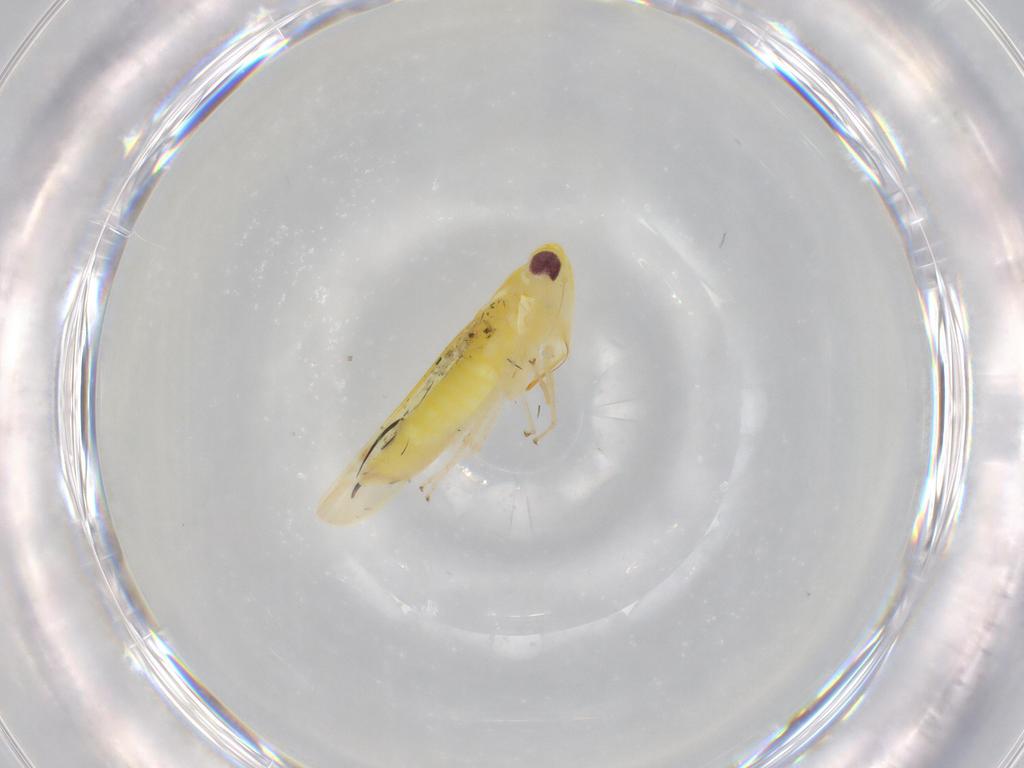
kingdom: Animalia
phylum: Arthropoda
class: Insecta
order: Hemiptera
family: Cicadellidae
